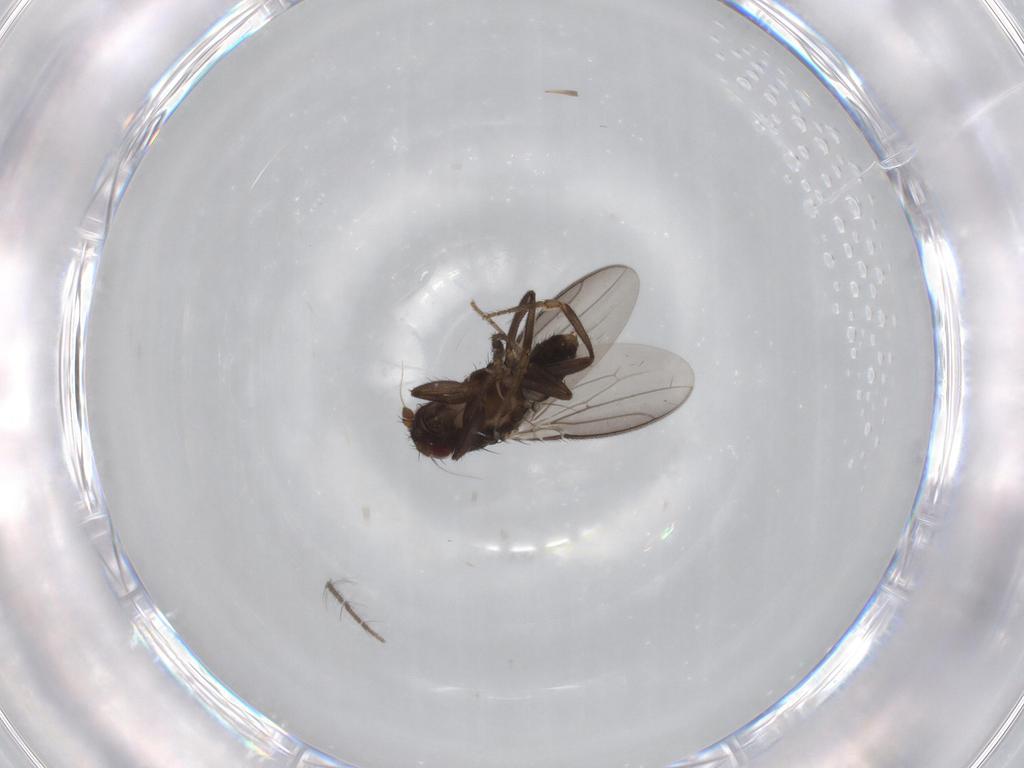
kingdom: Animalia
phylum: Arthropoda
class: Insecta
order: Diptera
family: Sphaeroceridae
